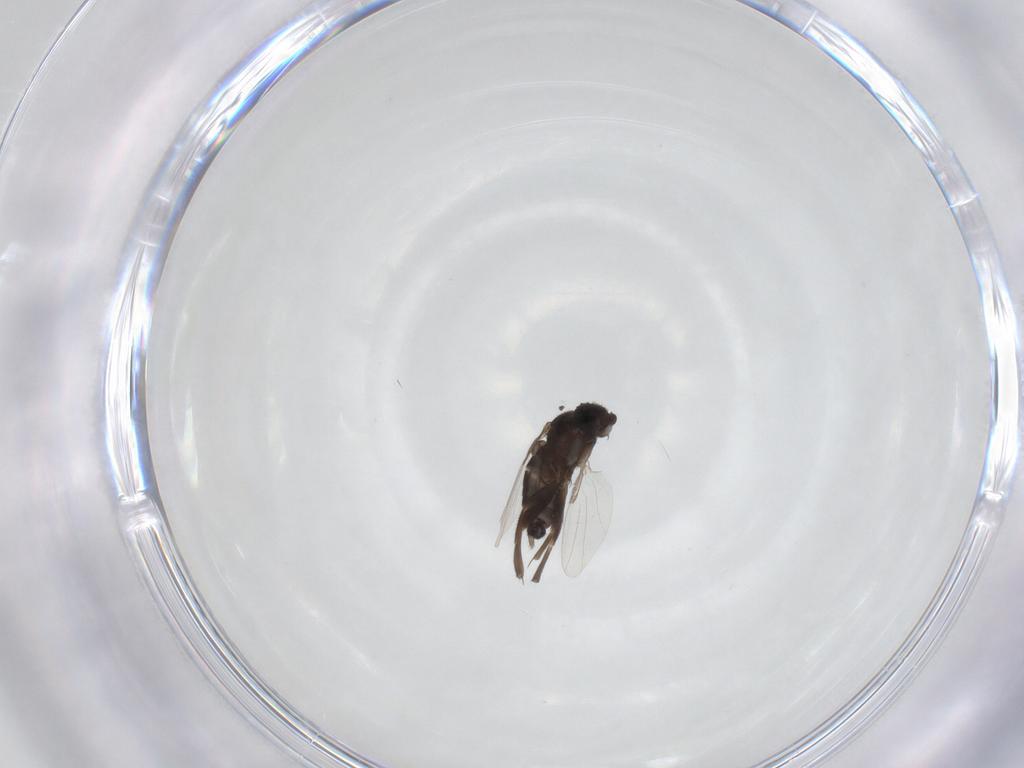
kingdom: Animalia
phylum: Arthropoda
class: Insecta
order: Diptera
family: Phoridae
